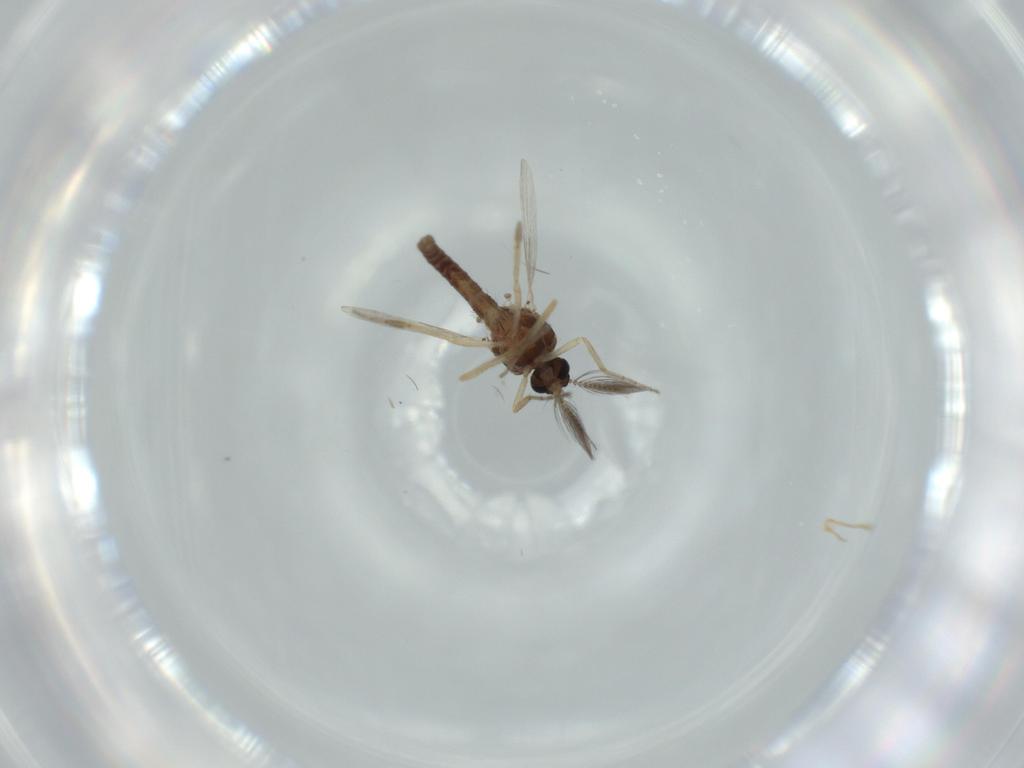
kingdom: Animalia
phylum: Arthropoda
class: Insecta
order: Diptera
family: Ceratopogonidae
